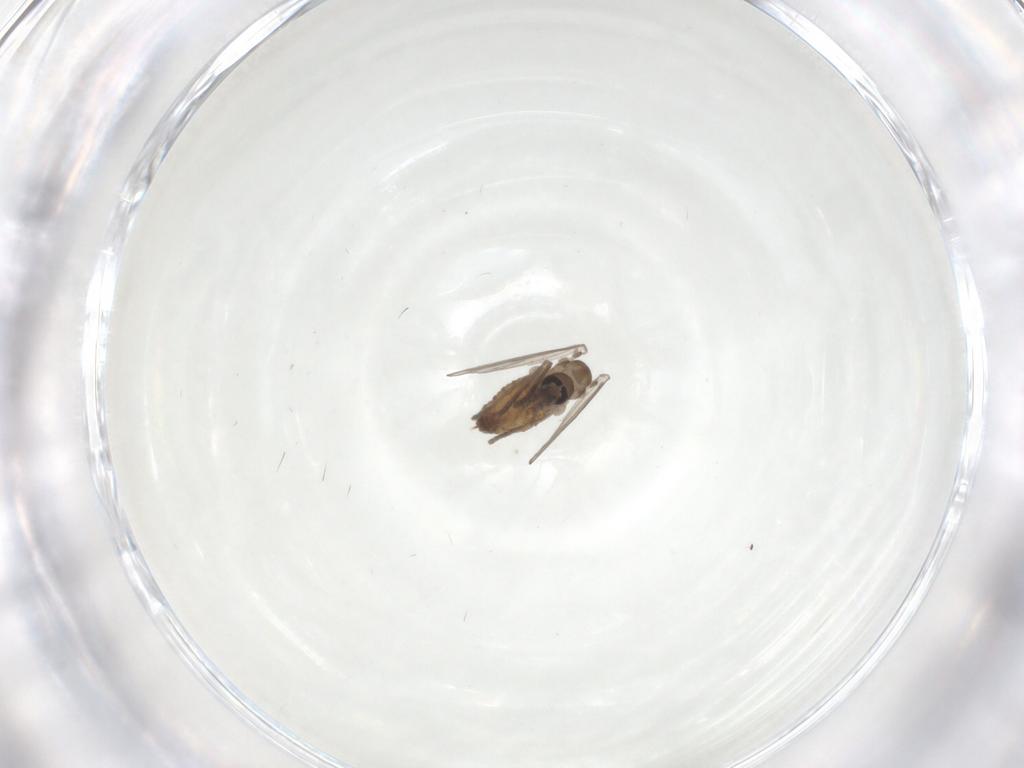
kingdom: Animalia
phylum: Arthropoda
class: Insecta
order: Diptera
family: Psychodidae
